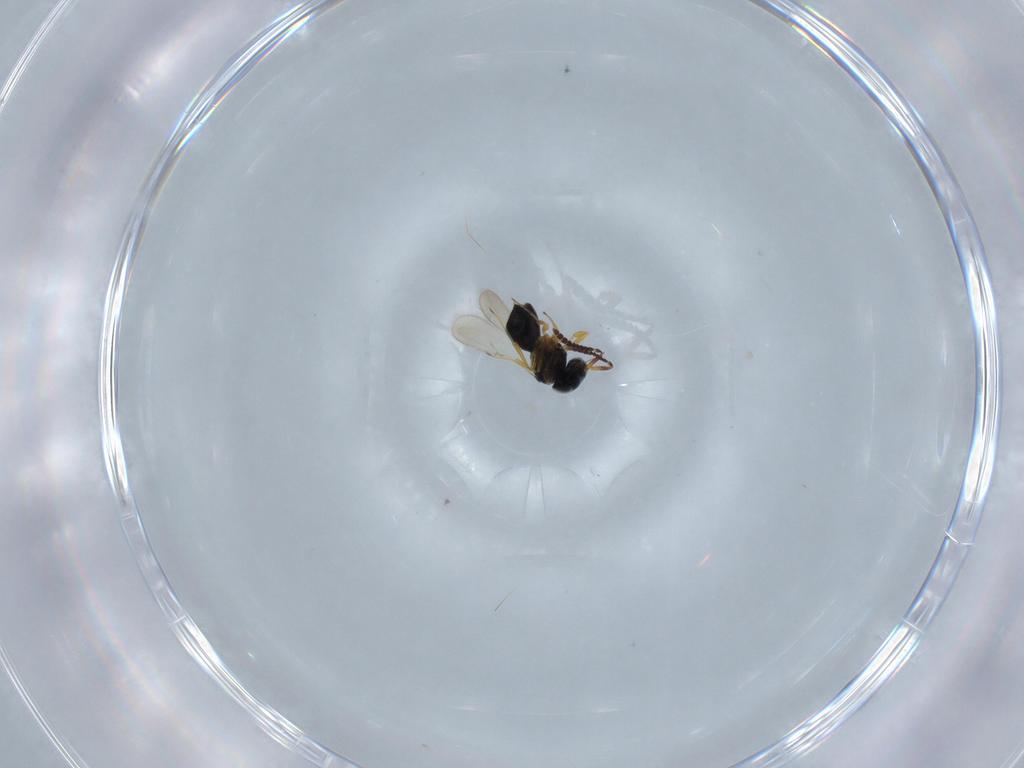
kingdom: Animalia
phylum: Arthropoda
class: Insecta
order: Hymenoptera
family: Scelionidae
